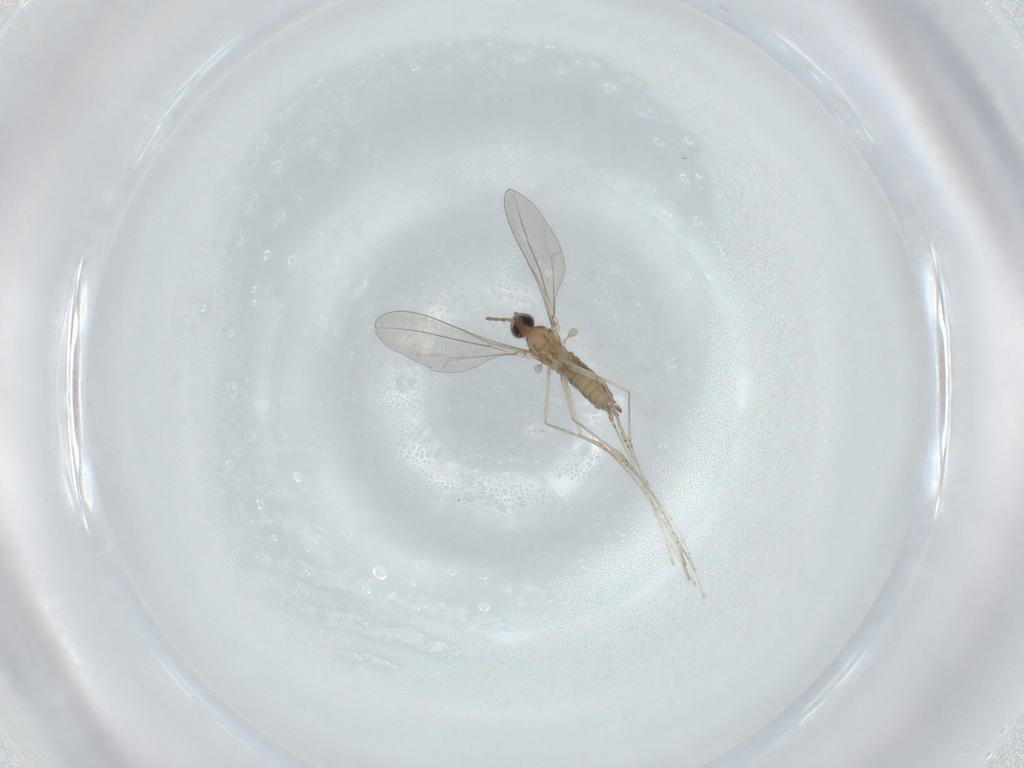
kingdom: Animalia
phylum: Arthropoda
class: Insecta
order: Diptera
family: Cecidomyiidae
